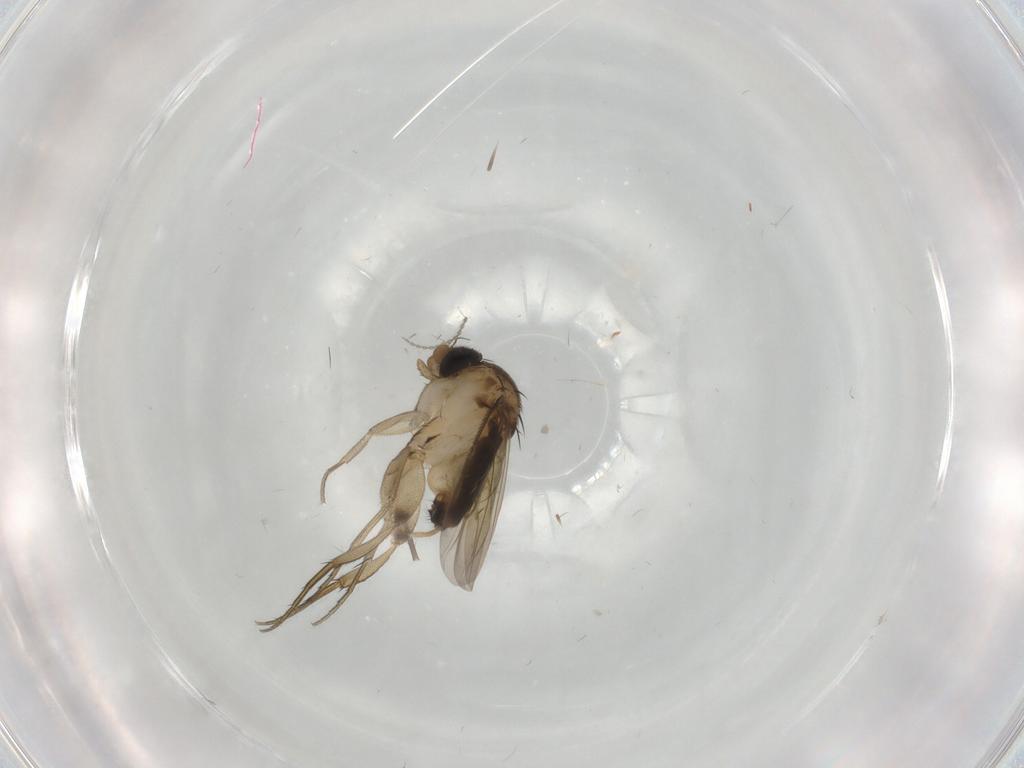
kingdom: Animalia
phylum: Arthropoda
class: Insecta
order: Diptera
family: Phoridae
